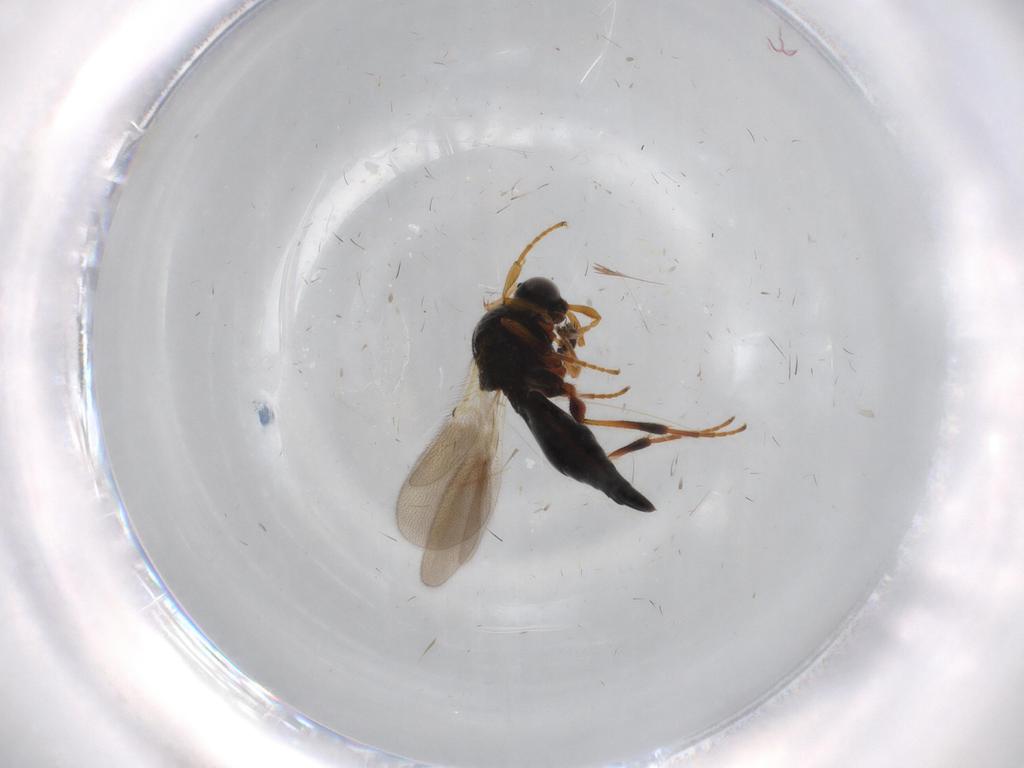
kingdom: Animalia
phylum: Arthropoda
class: Insecta
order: Hymenoptera
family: Platygastridae
